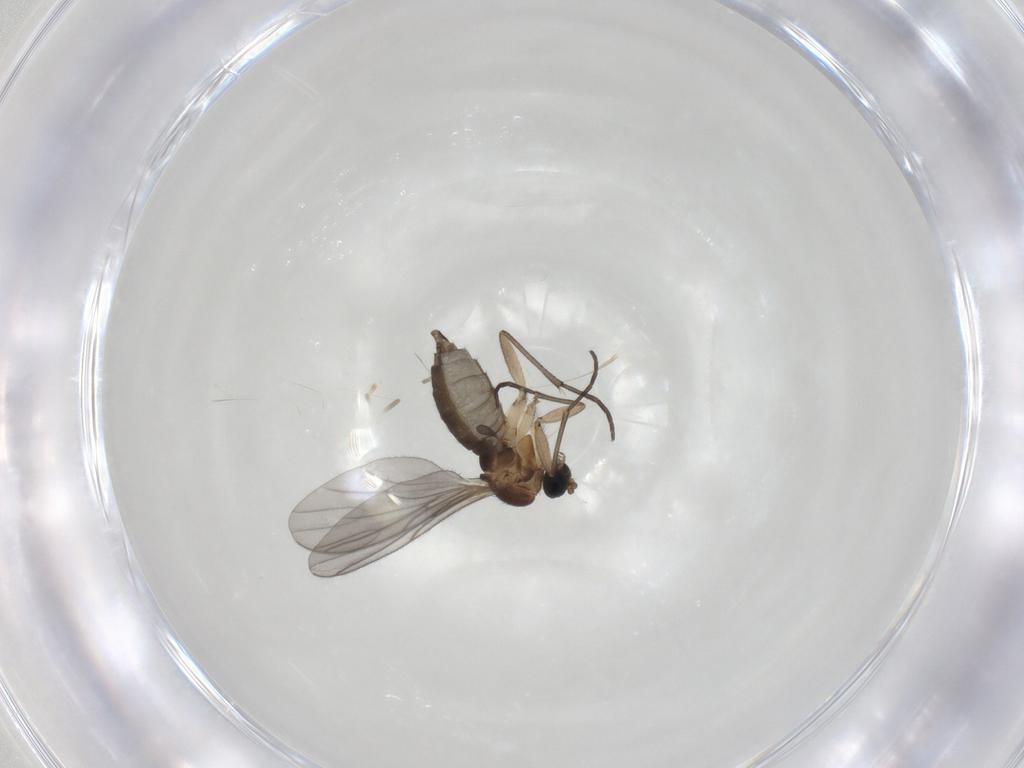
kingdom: Animalia
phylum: Arthropoda
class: Insecta
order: Diptera
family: Sciaridae
